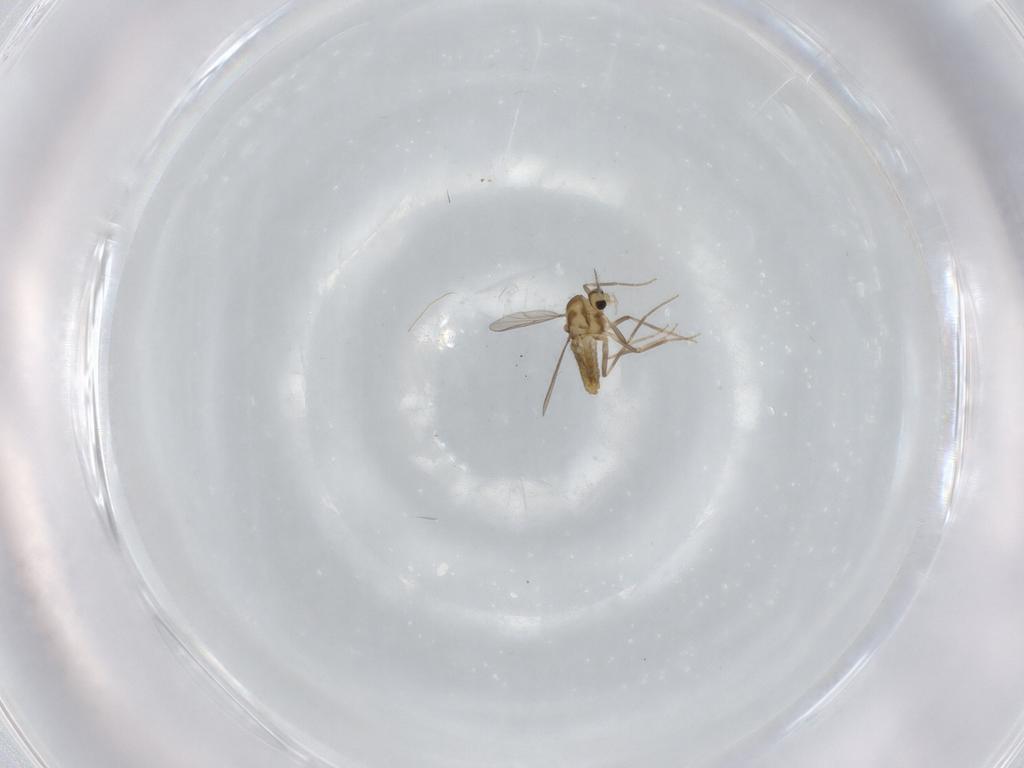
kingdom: Animalia
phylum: Arthropoda
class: Insecta
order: Diptera
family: Chironomidae
